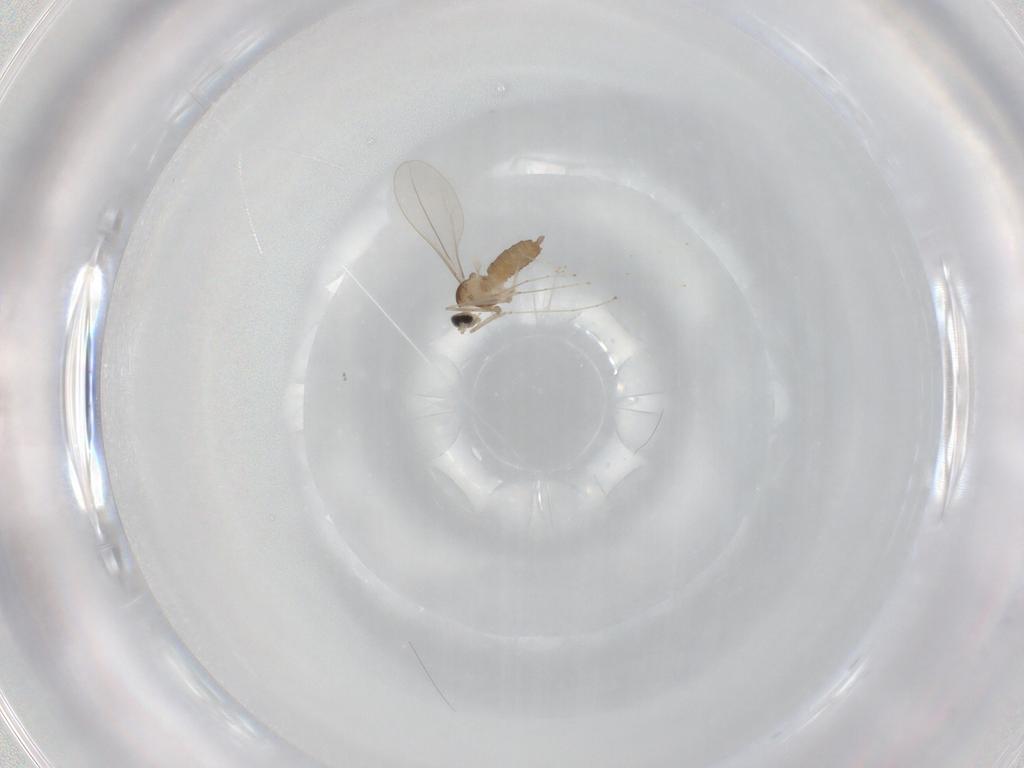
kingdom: Animalia
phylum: Arthropoda
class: Insecta
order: Diptera
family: Cecidomyiidae
